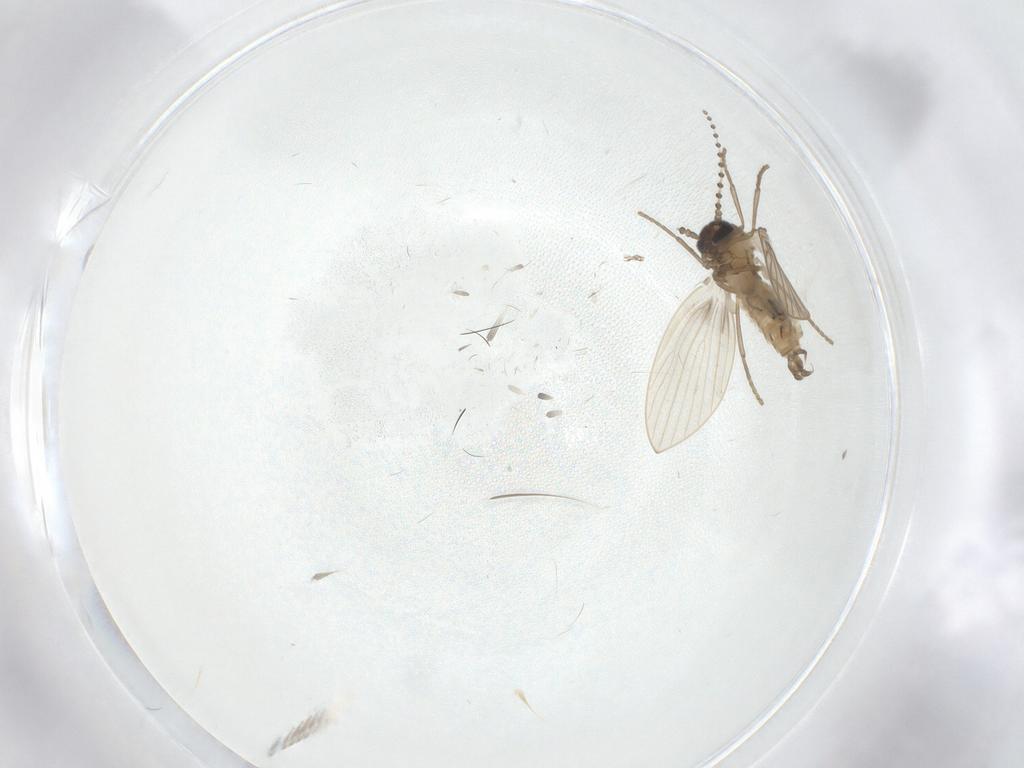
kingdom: Animalia
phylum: Arthropoda
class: Insecta
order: Diptera
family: Psychodidae
